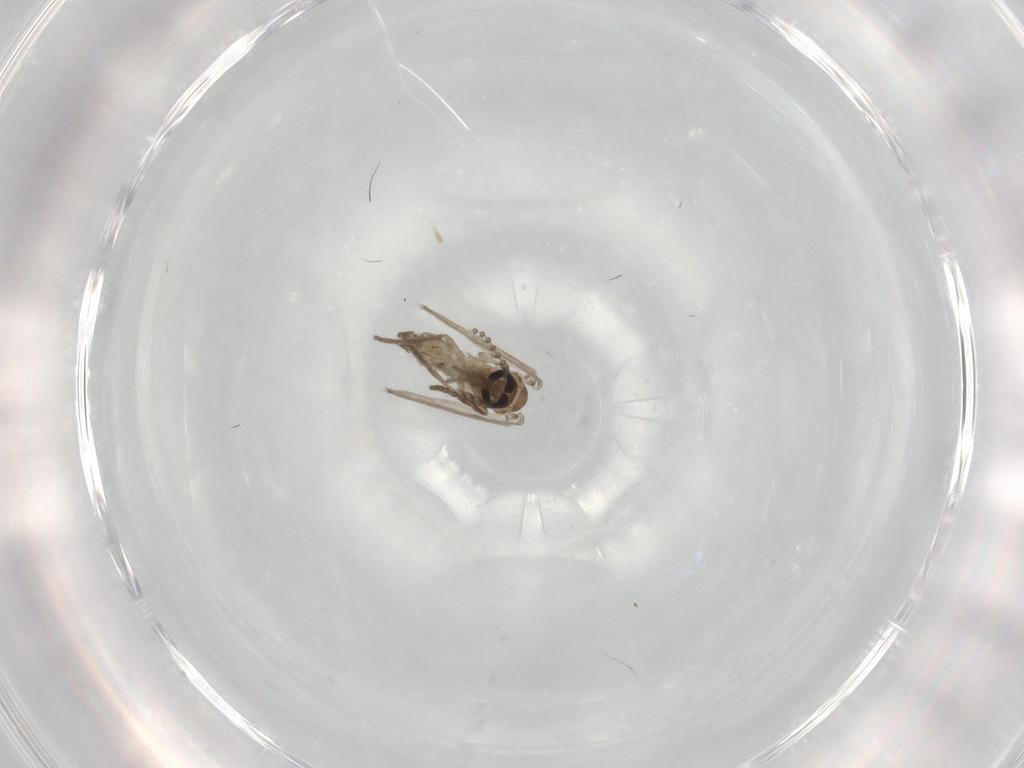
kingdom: Animalia
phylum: Arthropoda
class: Insecta
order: Diptera
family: Psychodidae
